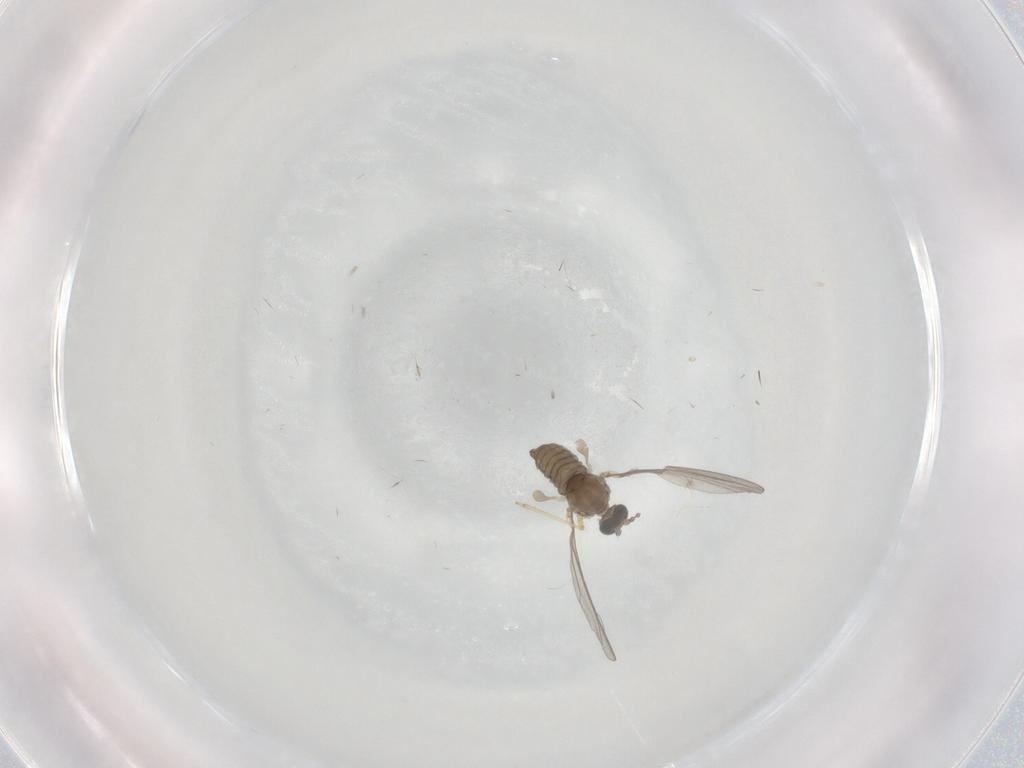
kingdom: Animalia
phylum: Arthropoda
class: Insecta
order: Diptera
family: Cecidomyiidae
